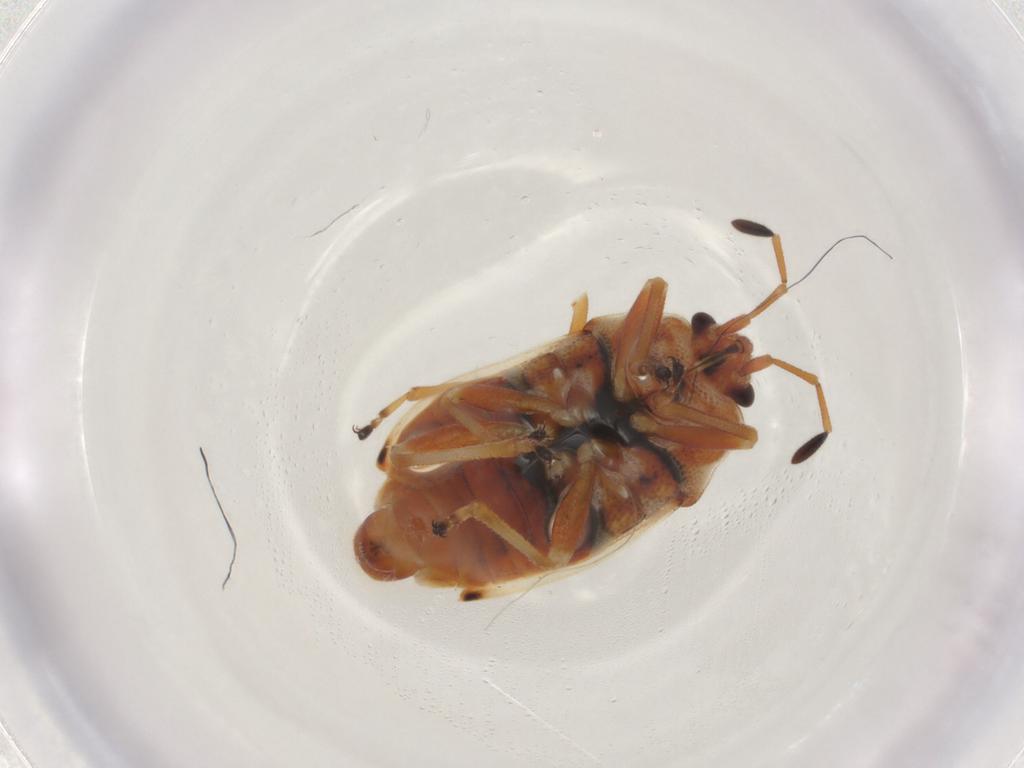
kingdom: Animalia
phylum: Arthropoda
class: Insecta
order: Hemiptera
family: Lygaeidae
